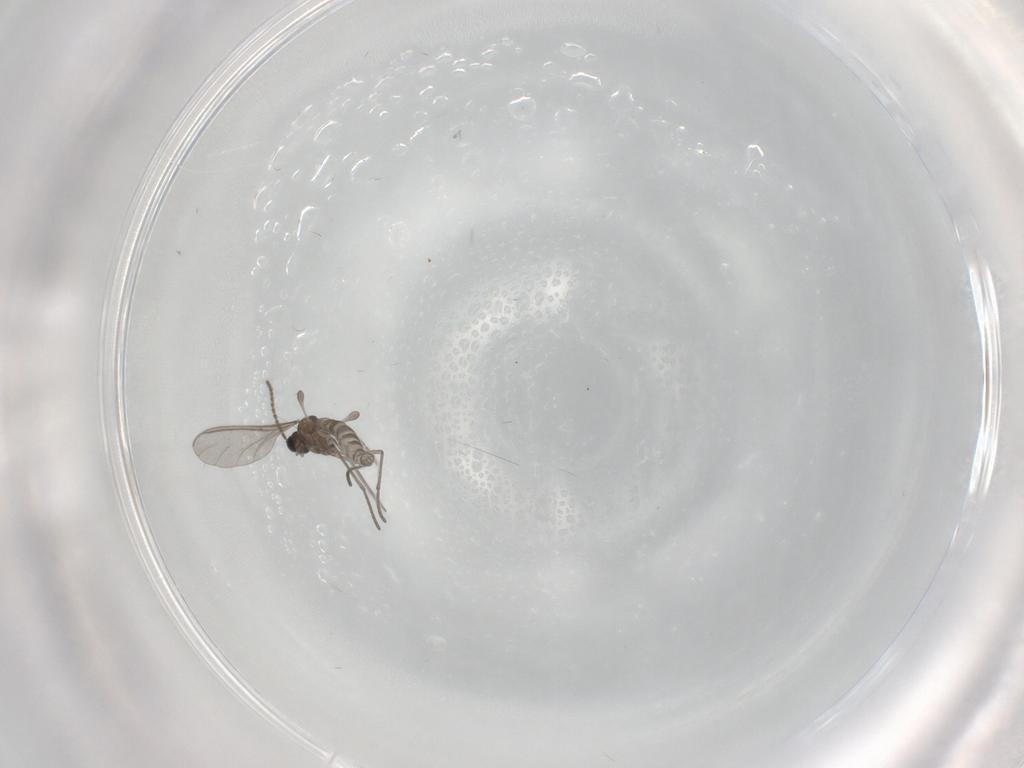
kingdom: Animalia
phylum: Arthropoda
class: Insecta
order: Diptera
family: Sciaridae
